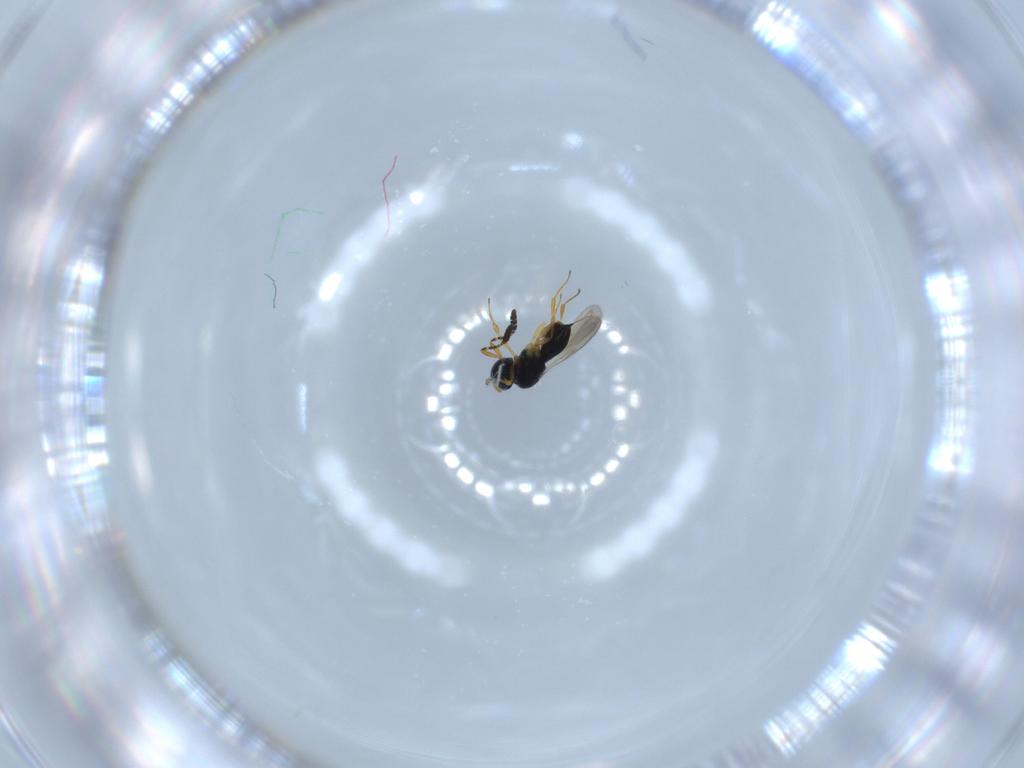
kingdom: Animalia
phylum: Arthropoda
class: Insecta
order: Hymenoptera
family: Scelionidae
